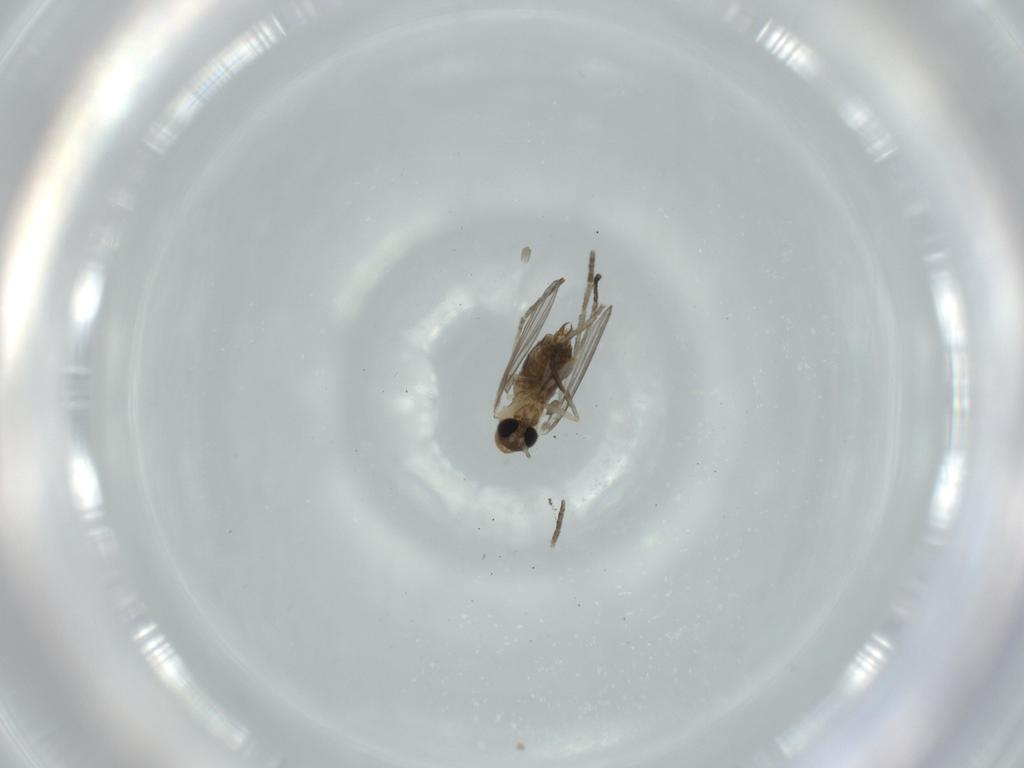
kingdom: Animalia
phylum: Arthropoda
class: Insecta
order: Diptera
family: Psychodidae
